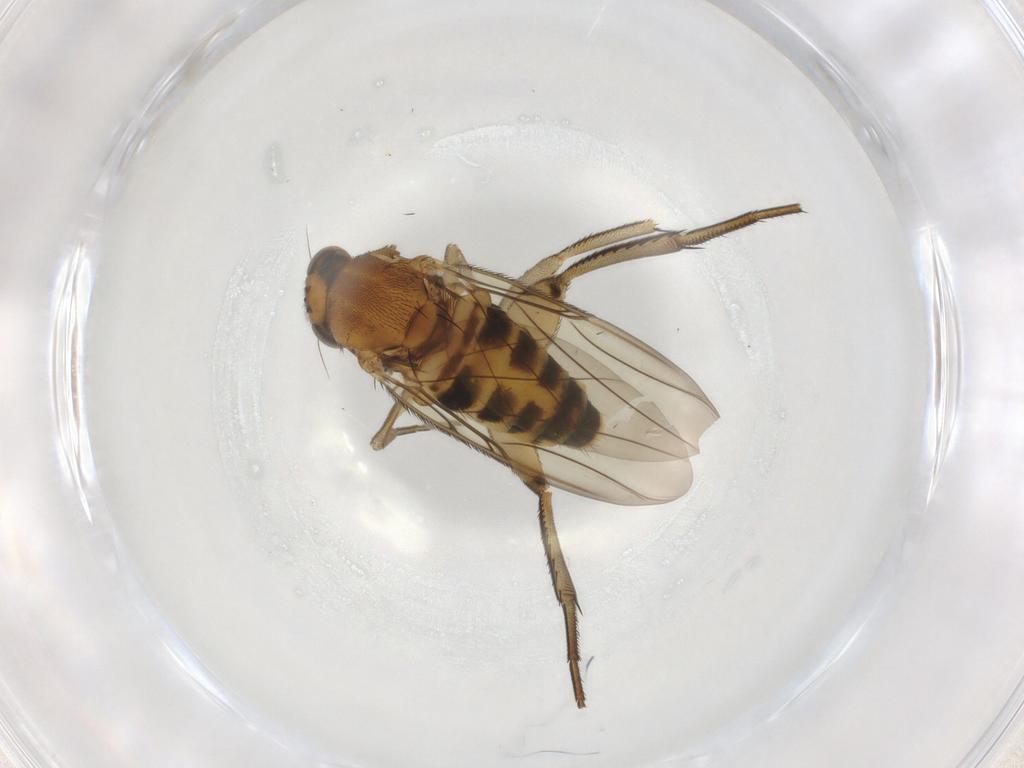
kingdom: Animalia
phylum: Arthropoda
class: Insecta
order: Diptera
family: Phoridae
